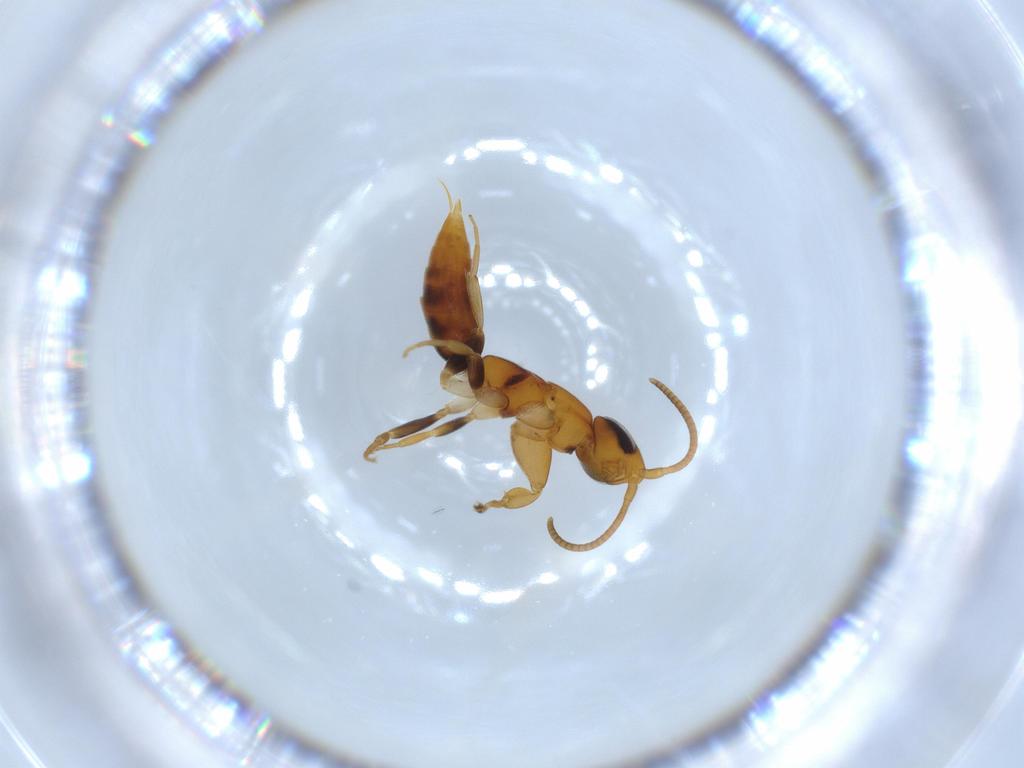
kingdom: Animalia
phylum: Arthropoda
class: Insecta
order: Hymenoptera
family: Sclerogibbidae
